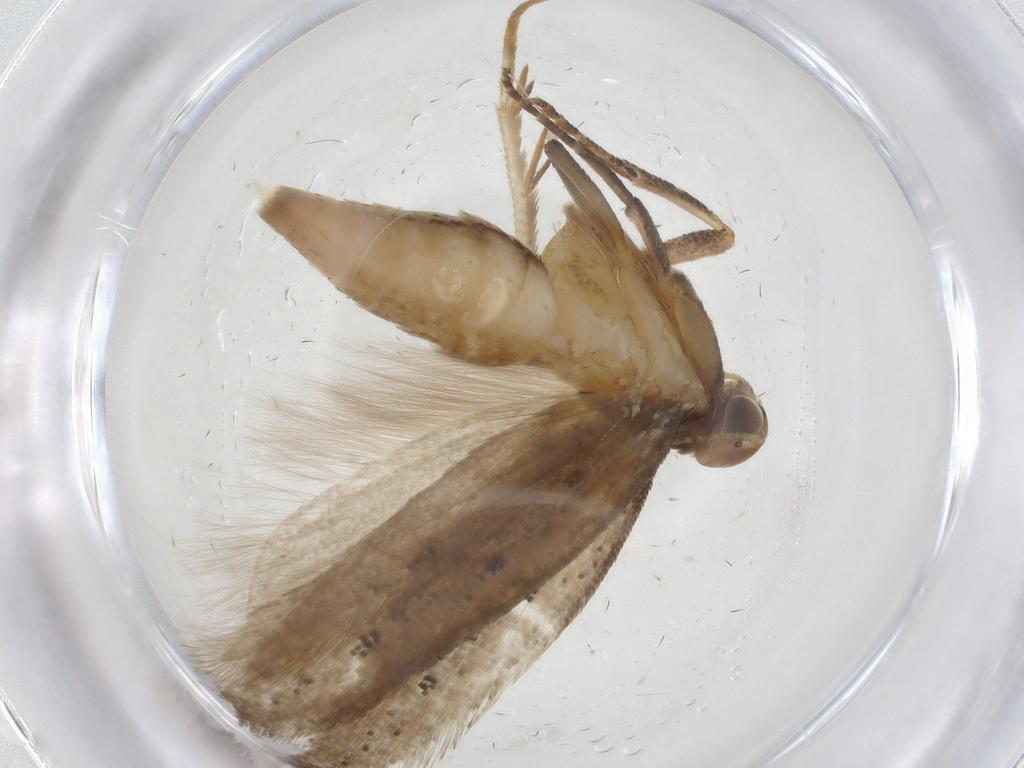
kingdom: Animalia
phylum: Arthropoda
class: Insecta
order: Lepidoptera
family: Gelechiidae
